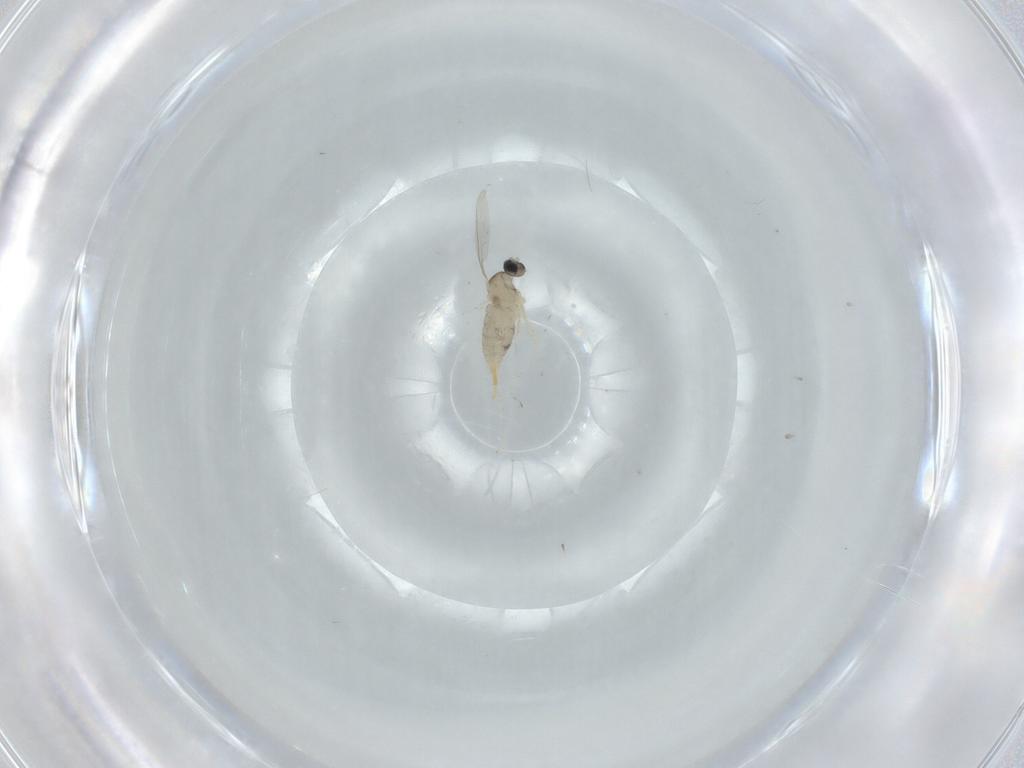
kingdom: Animalia
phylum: Arthropoda
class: Insecta
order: Diptera
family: Cecidomyiidae
